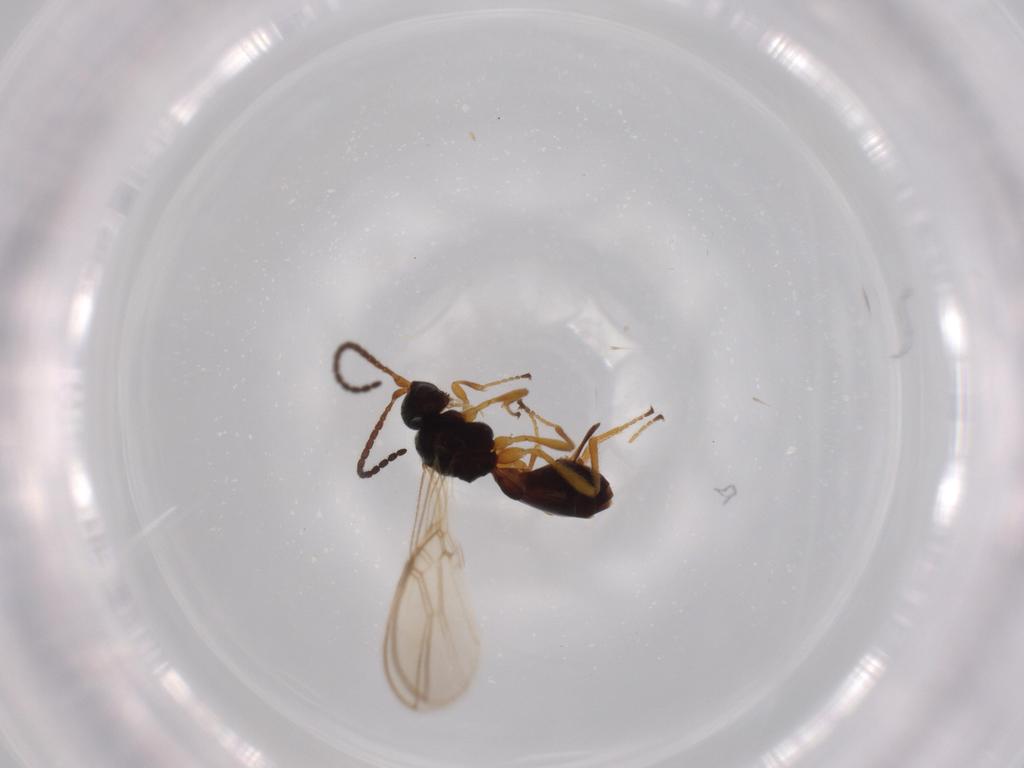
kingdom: Animalia
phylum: Arthropoda
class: Insecta
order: Hymenoptera
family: Braconidae
